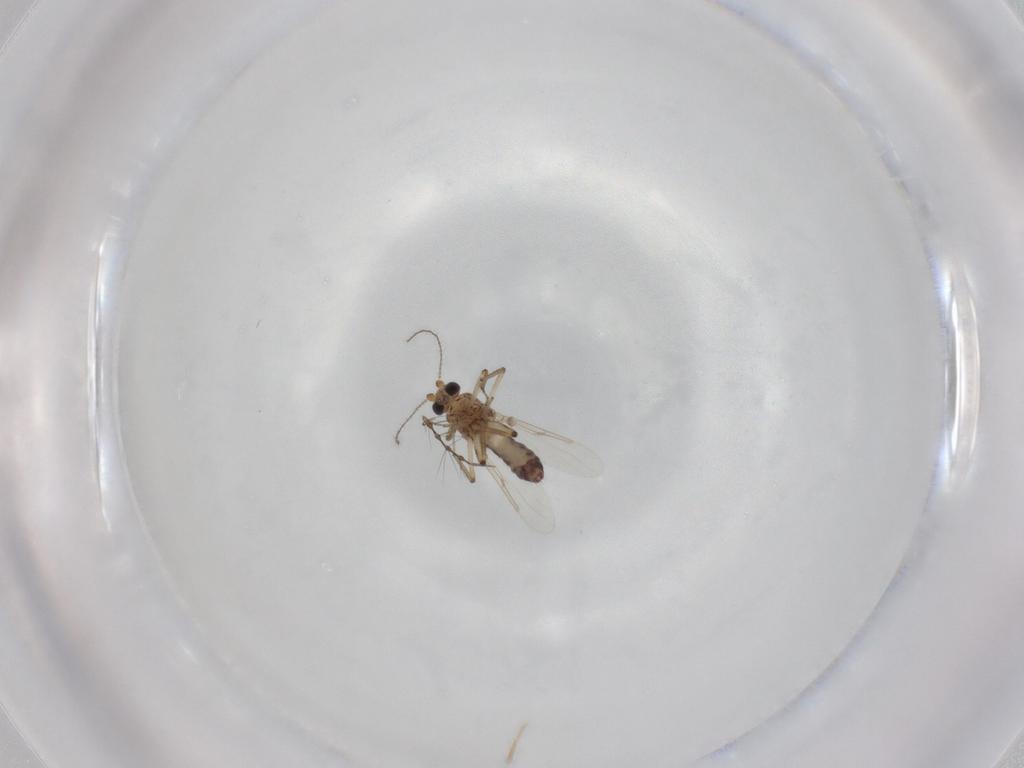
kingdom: Animalia
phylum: Arthropoda
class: Insecta
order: Diptera
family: Ceratopogonidae
